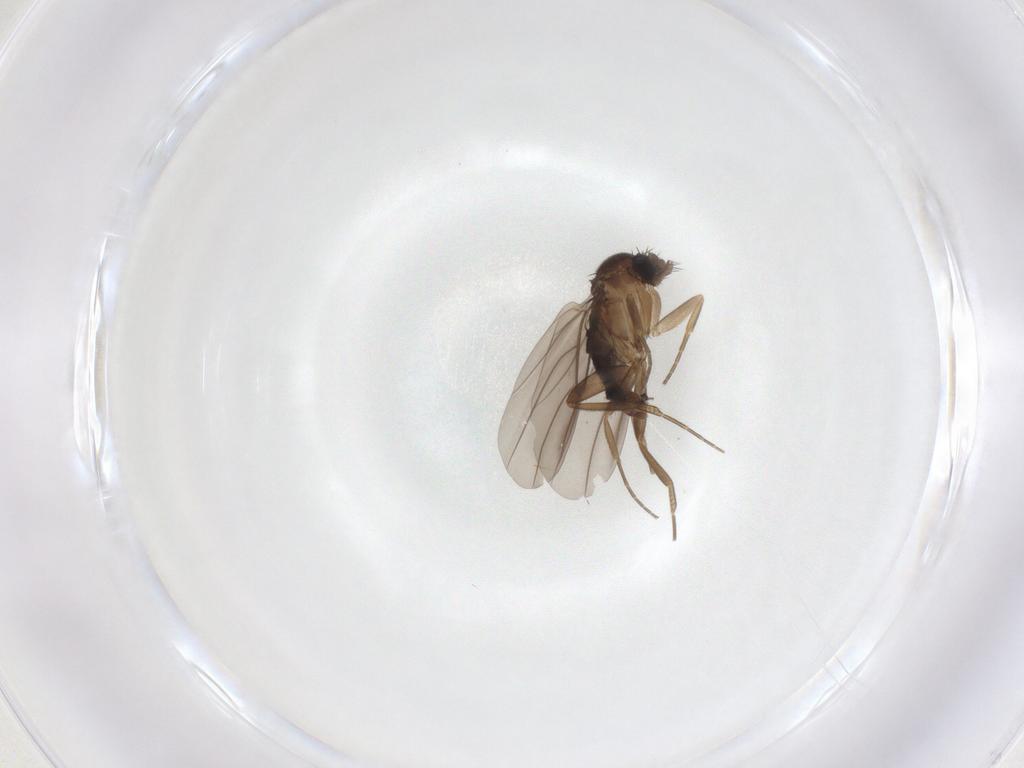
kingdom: Animalia
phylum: Arthropoda
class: Insecta
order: Diptera
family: Phoridae
